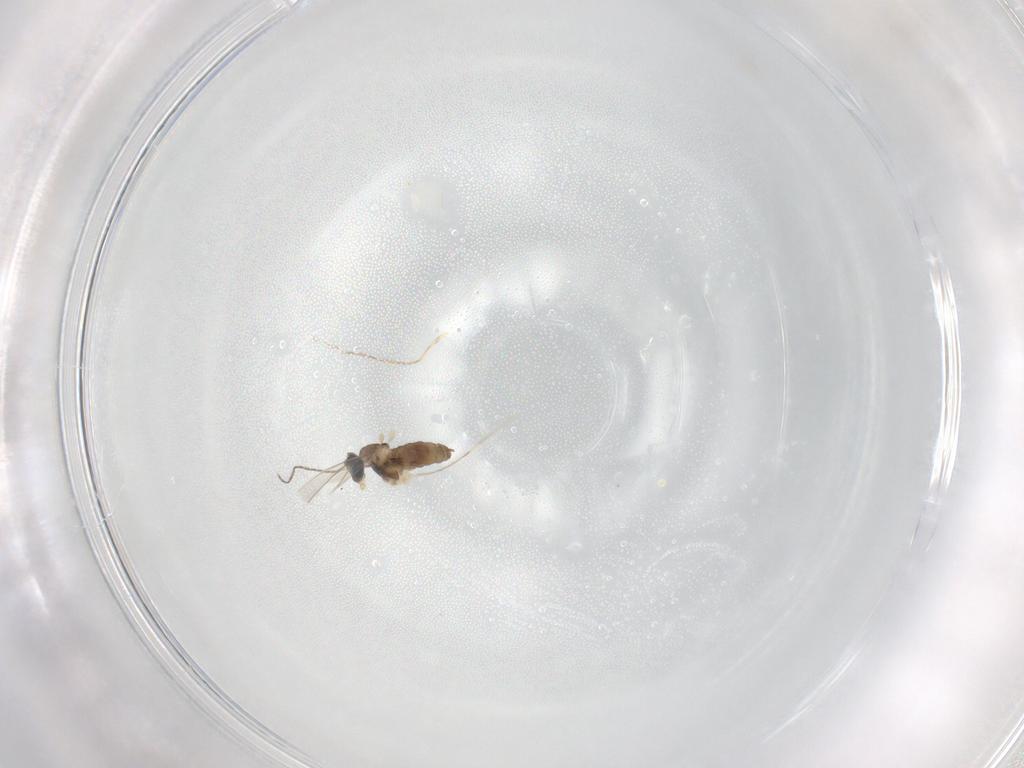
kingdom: Animalia
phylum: Arthropoda
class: Insecta
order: Diptera
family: Cecidomyiidae
